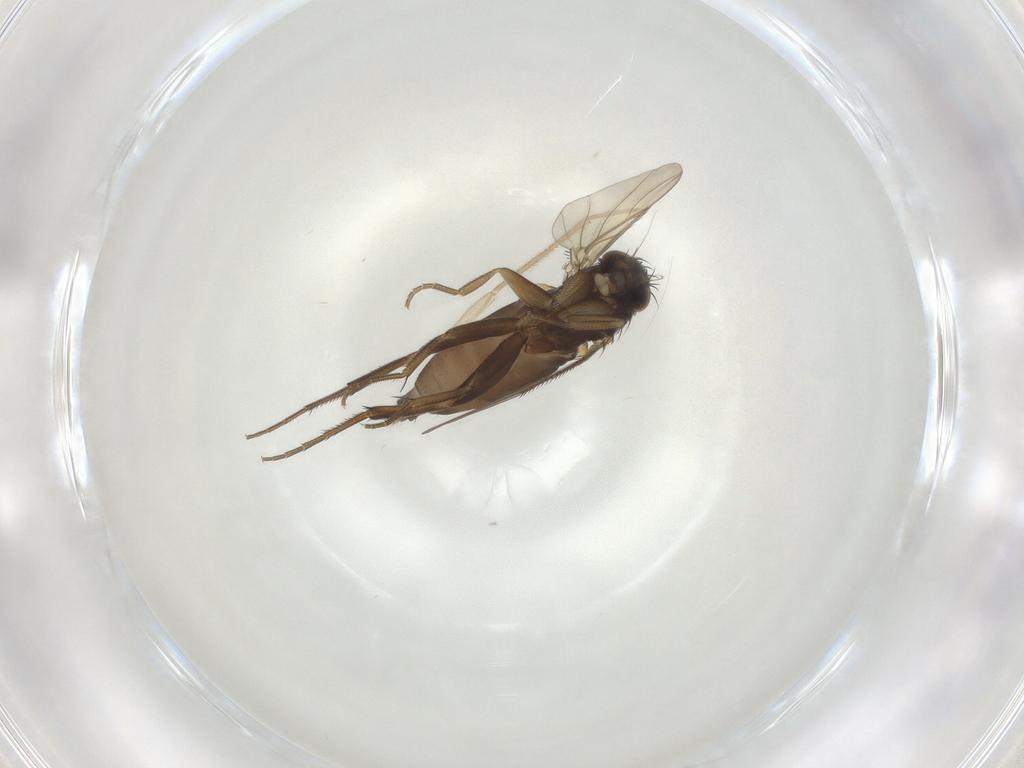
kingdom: Animalia
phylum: Arthropoda
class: Insecta
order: Diptera
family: Phoridae
